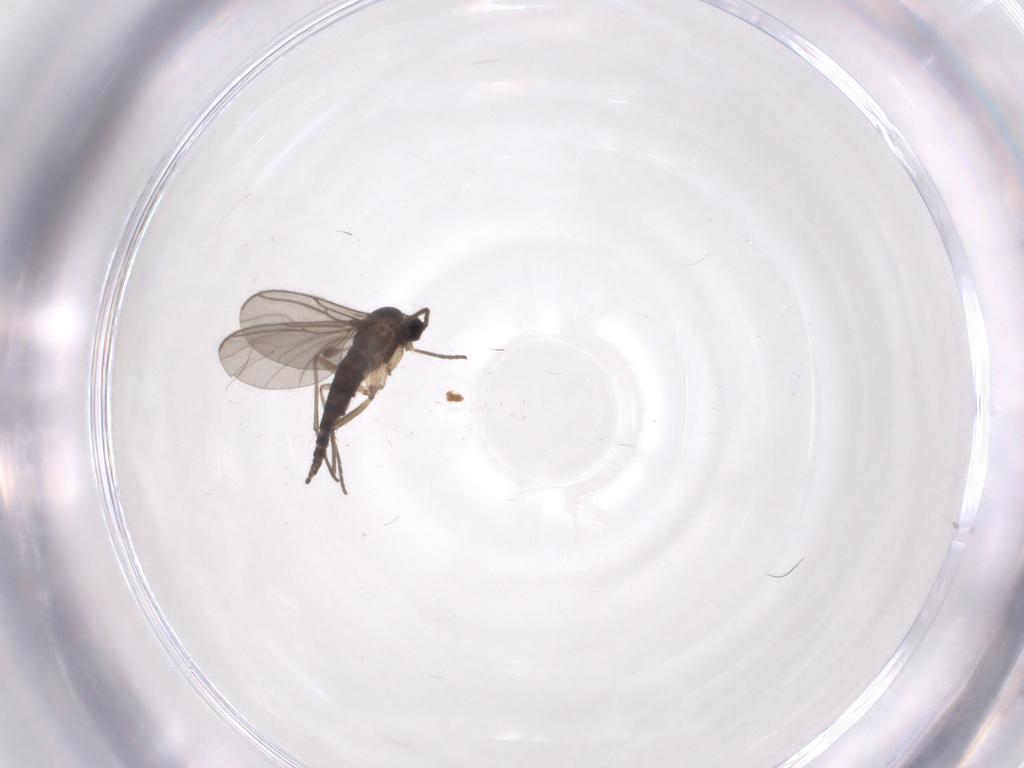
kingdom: Animalia
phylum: Arthropoda
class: Insecta
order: Diptera
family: Sciaridae
